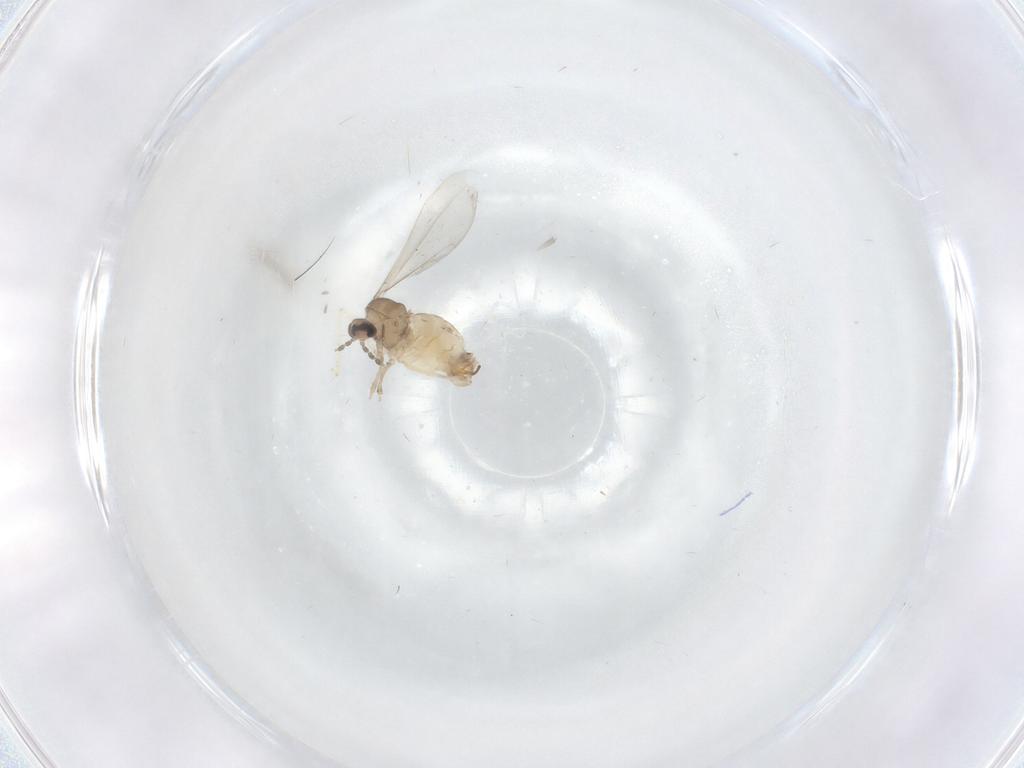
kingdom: Animalia
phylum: Arthropoda
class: Insecta
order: Diptera
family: Cecidomyiidae
